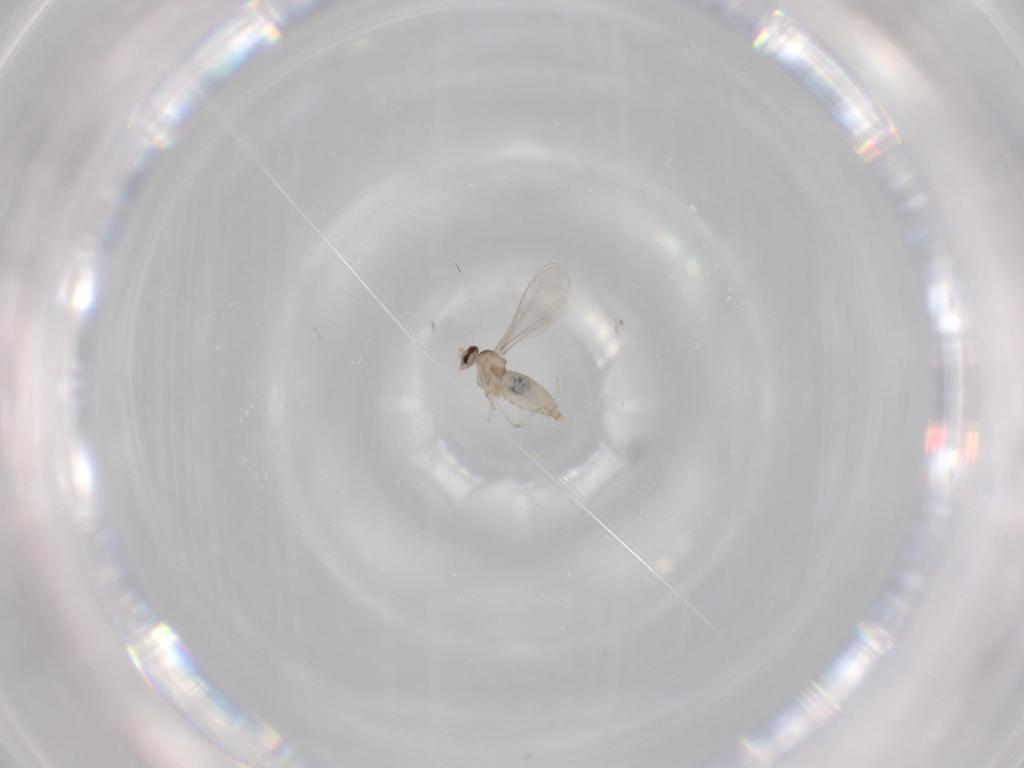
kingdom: Animalia
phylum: Arthropoda
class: Insecta
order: Diptera
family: Cecidomyiidae
